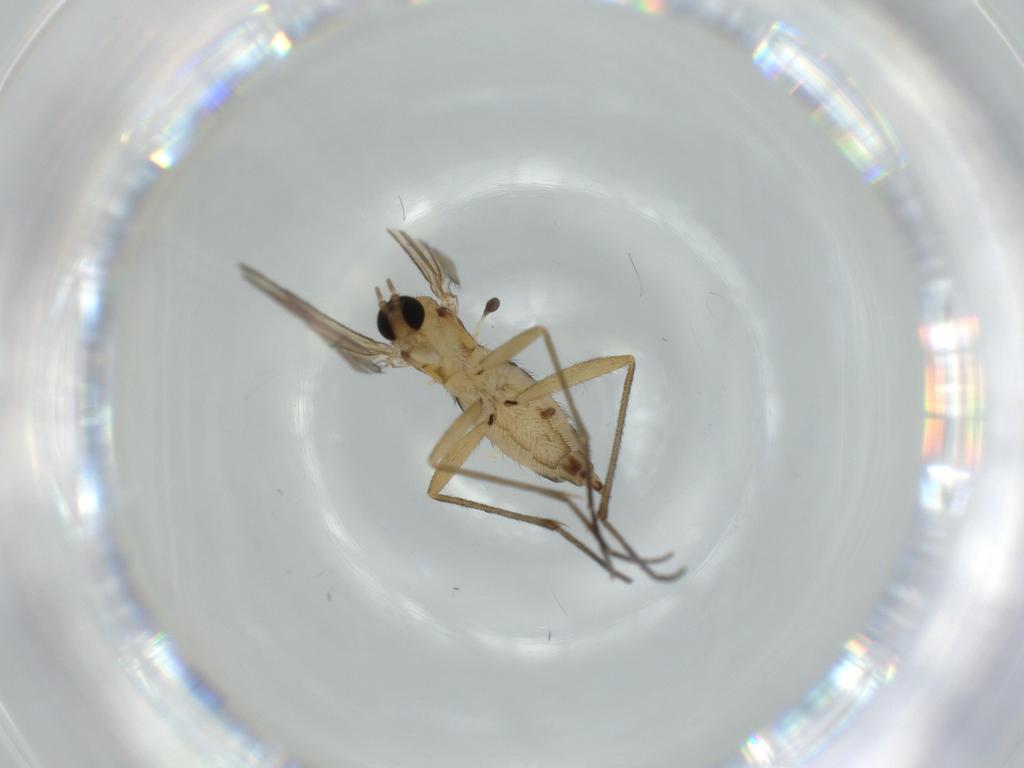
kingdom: Animalia
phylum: Arthropoda
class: Insecta
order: Diptera
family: Sciaridae
